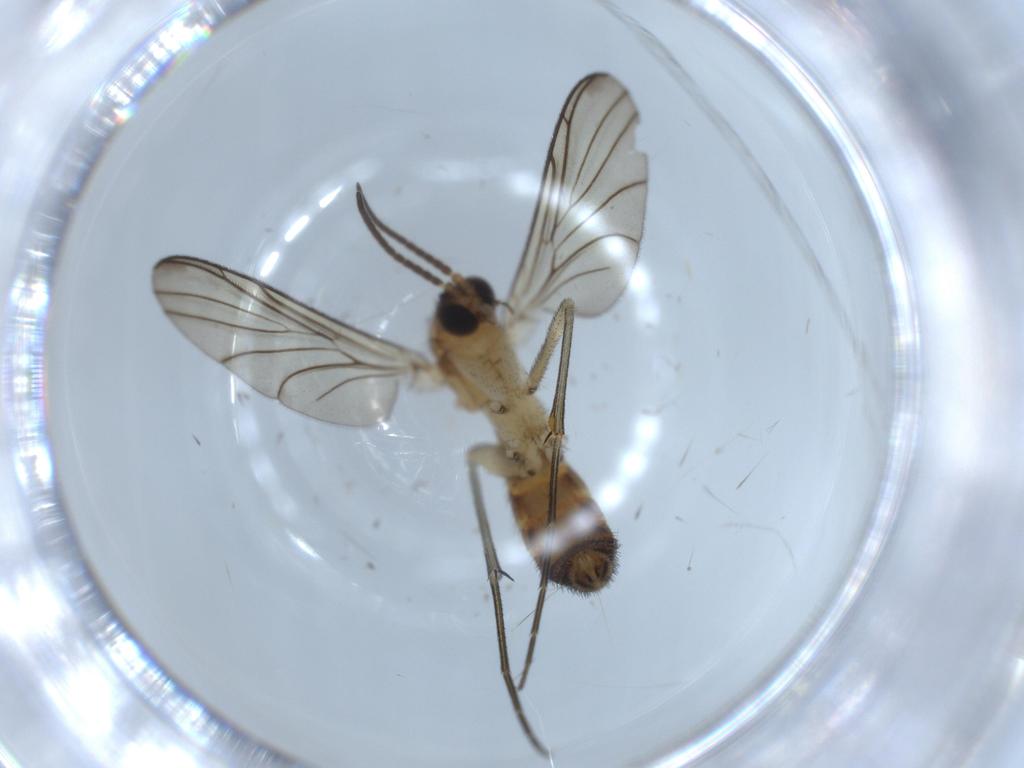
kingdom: Animalia
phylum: Arthropoda
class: Insecta
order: Diptera
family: Keroplatidae
